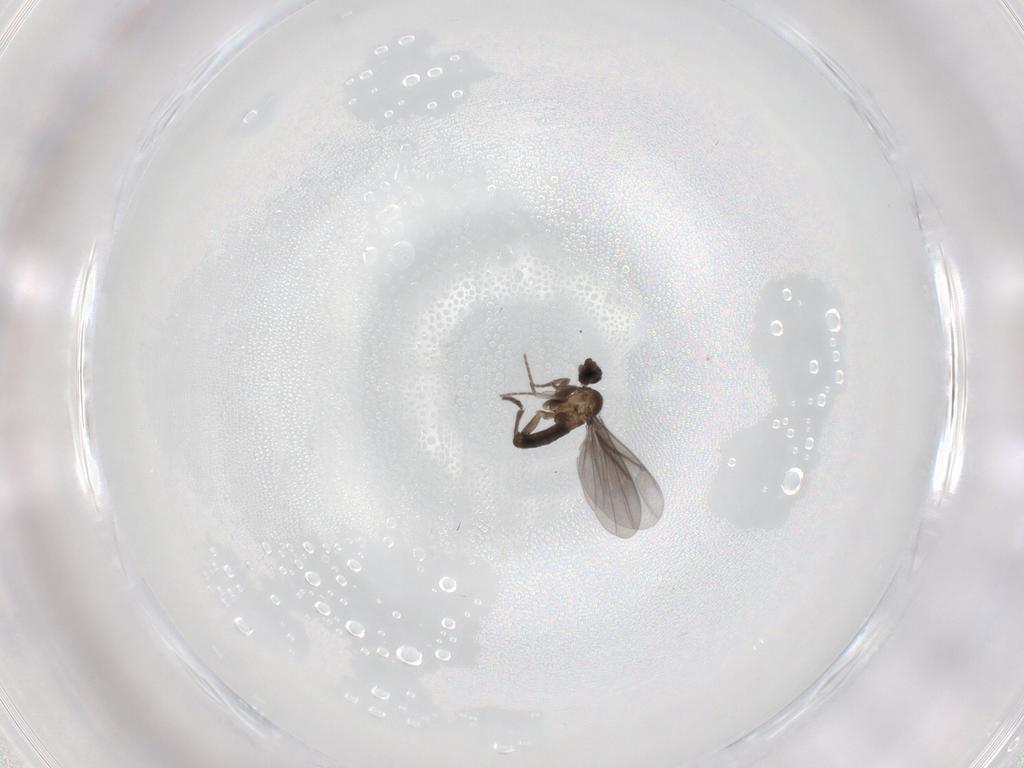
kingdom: Animalia
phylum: Arthropoda
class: Insecta
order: Diptera
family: Phoridae
